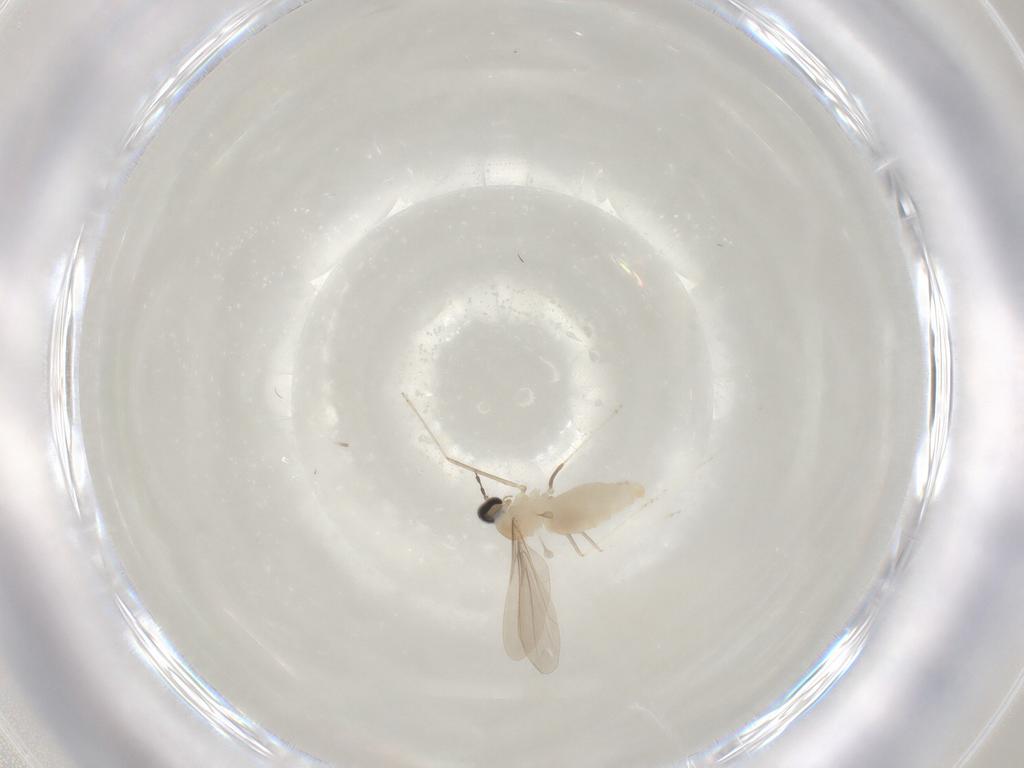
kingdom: Animalia
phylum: Arthropoda
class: Insecta
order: Diptera
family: Cecidomyiidae
